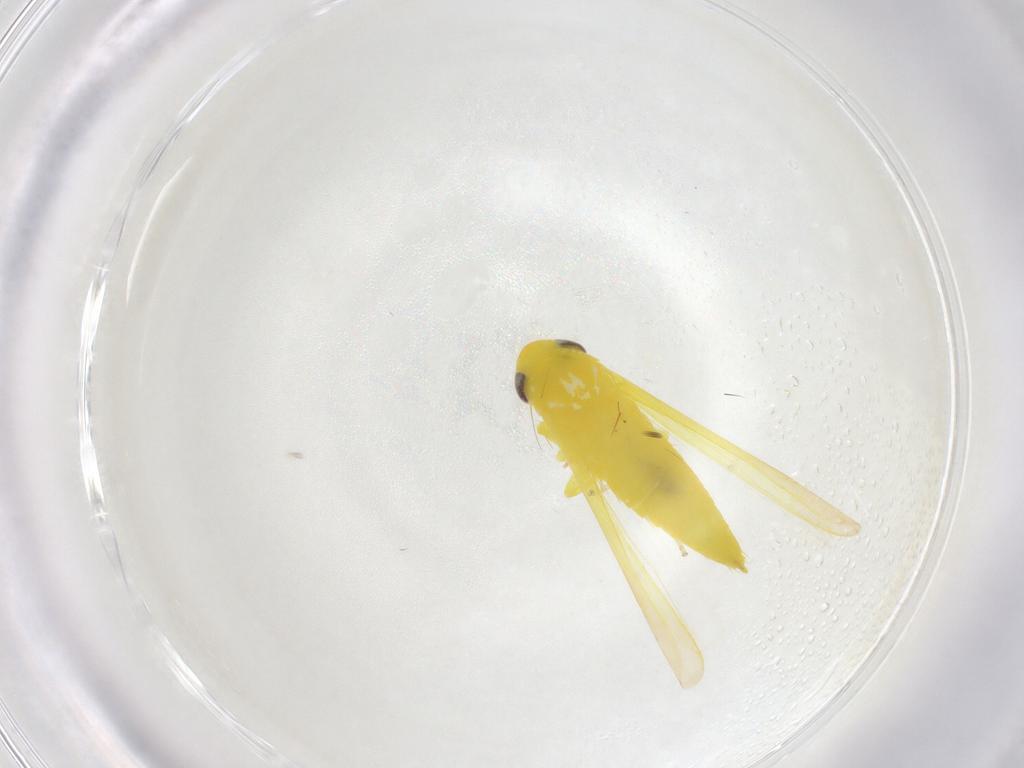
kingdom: Animalia
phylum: Arthropoda
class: Insecta
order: Hemiptera
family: Cicadellidae
